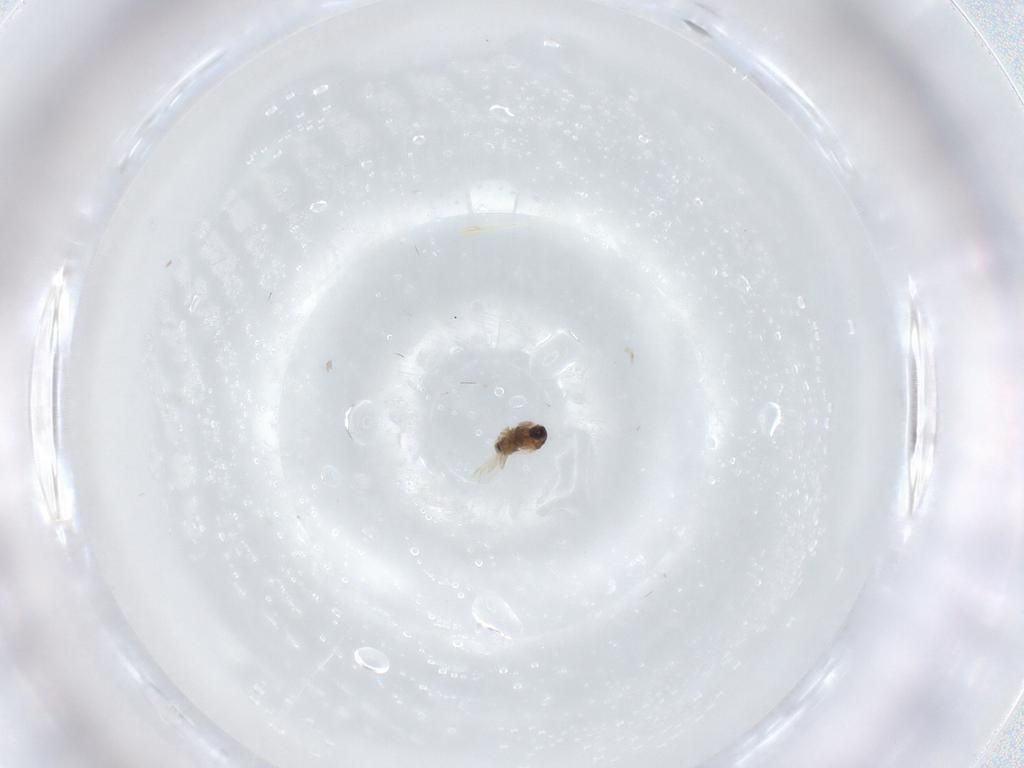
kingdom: Animalia
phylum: Arthropoda
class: Insecta
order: Diptera
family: Cecidomyiidae
